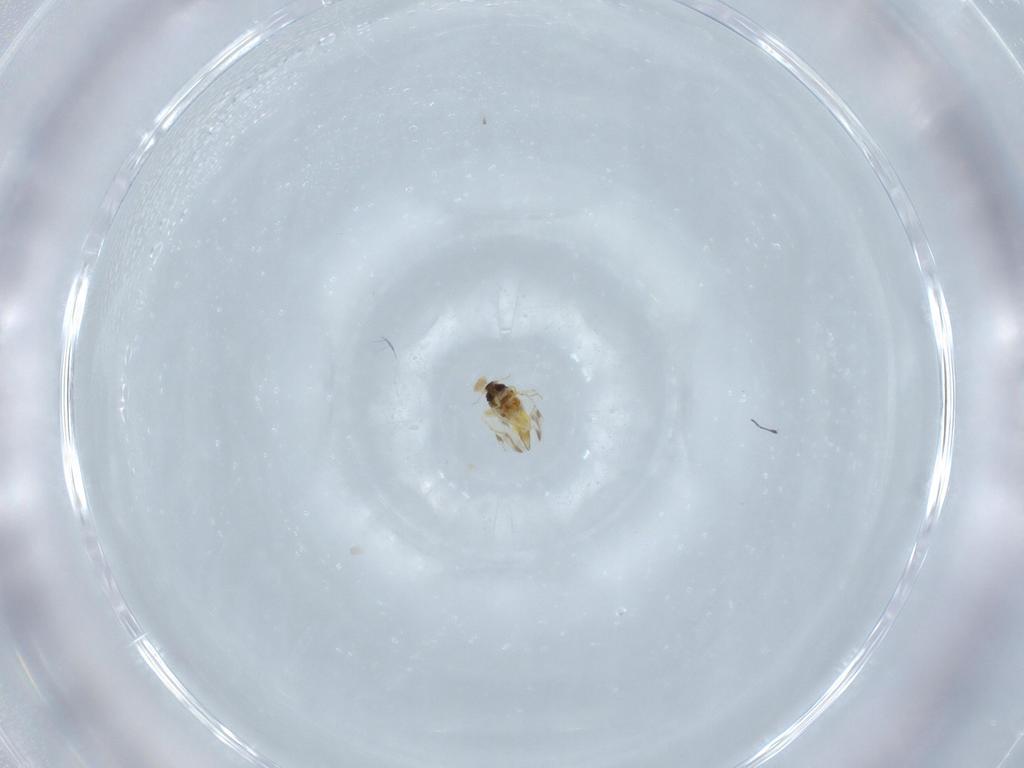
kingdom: Animalia
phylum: Arthropoda
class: Insecta
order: Hemiptera
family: Aleyrodidae
